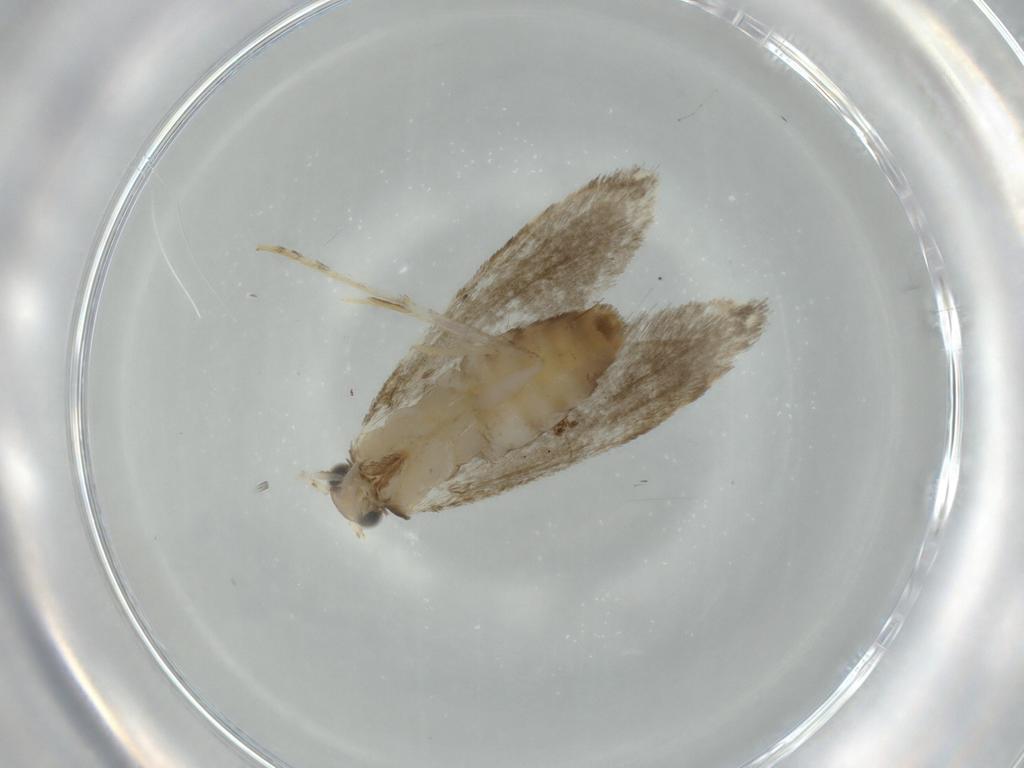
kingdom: Animalia
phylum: Arthropoda
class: Insecta
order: Lepidoptera
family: Tineidae
